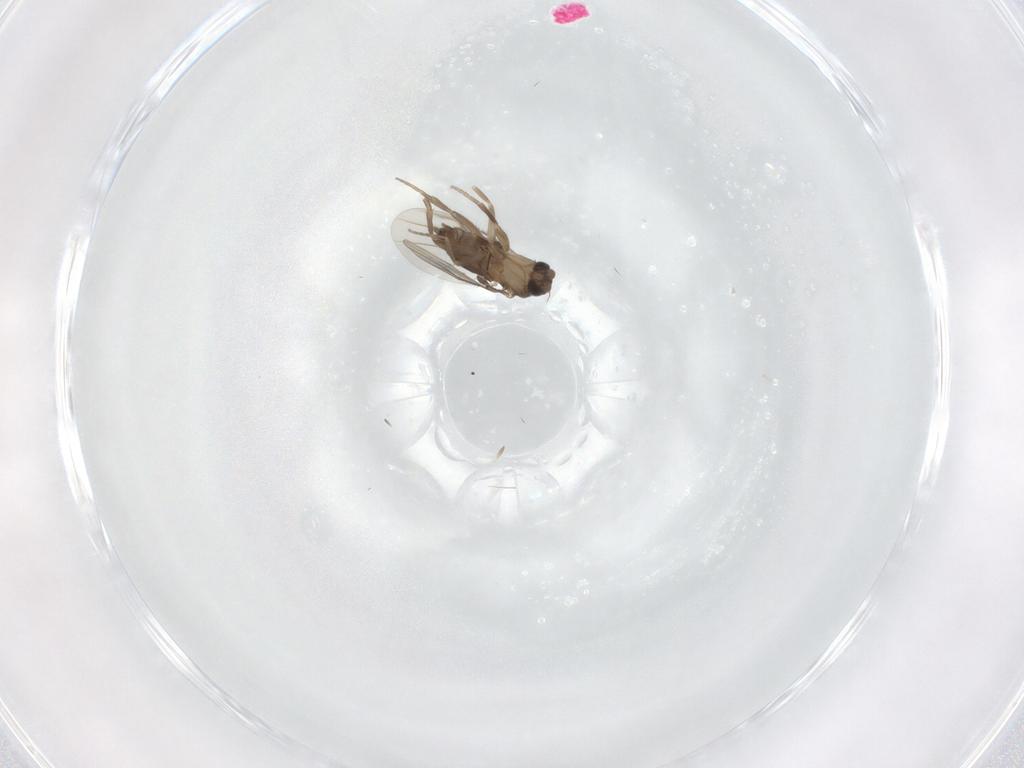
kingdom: Animalia
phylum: Arthropoda
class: Insecta
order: Diptera
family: Phoridae
